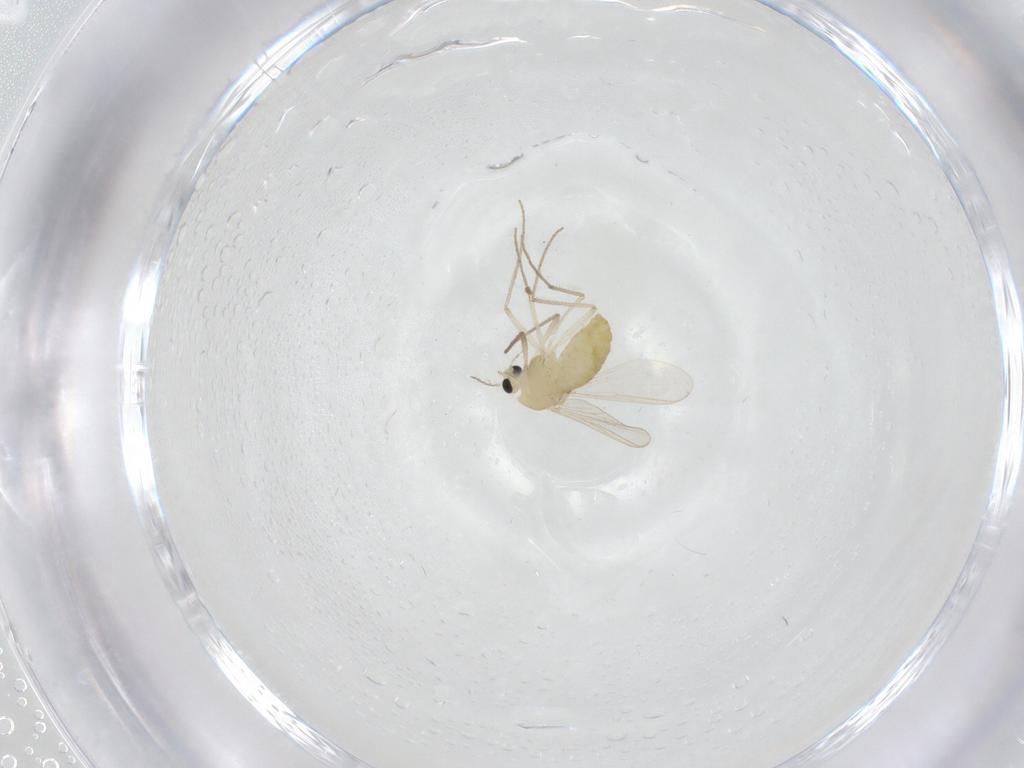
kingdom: Animalia
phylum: Arthropoda
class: Insecta
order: Diptera
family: Chironomidae
